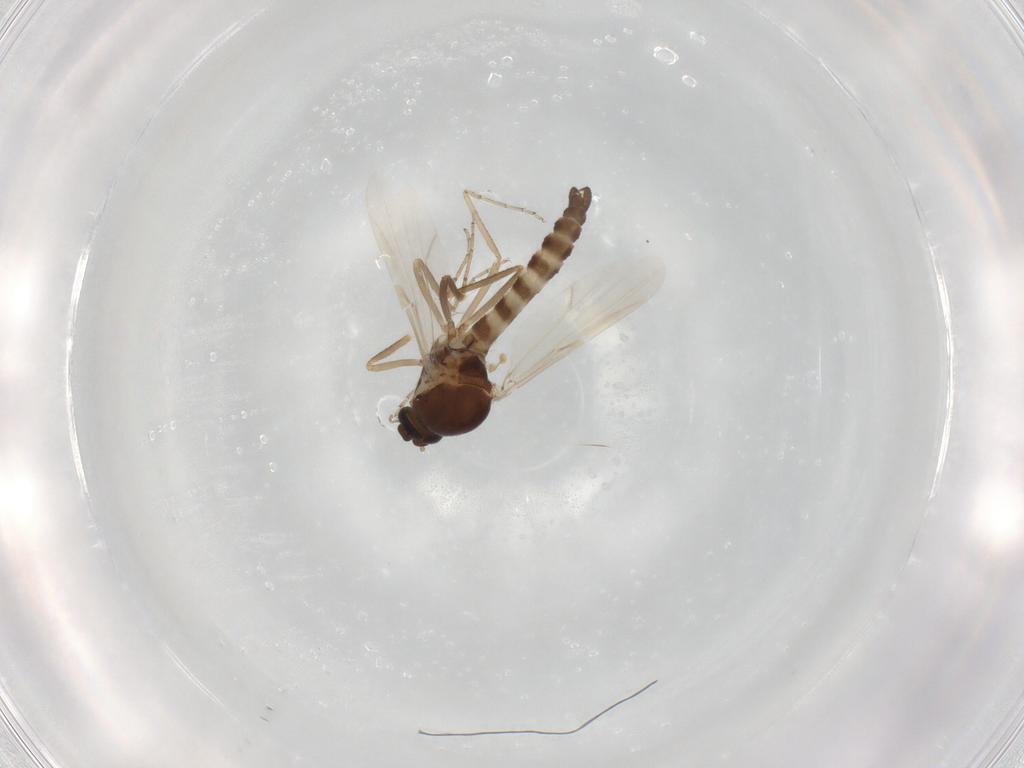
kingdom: Animalia
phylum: Arthropoda
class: Insecta
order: Diptera
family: Ceratopogonidae
